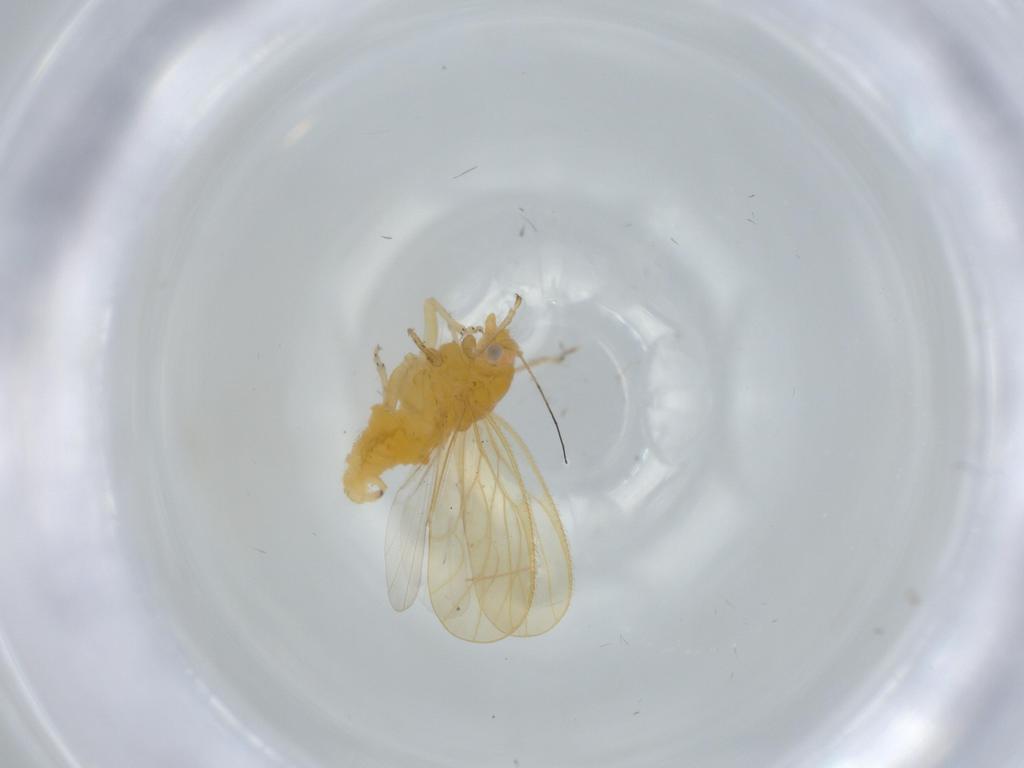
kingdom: Animalia
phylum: Arthropoda
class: Insecta
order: Hemiptera
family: Psyllidae
